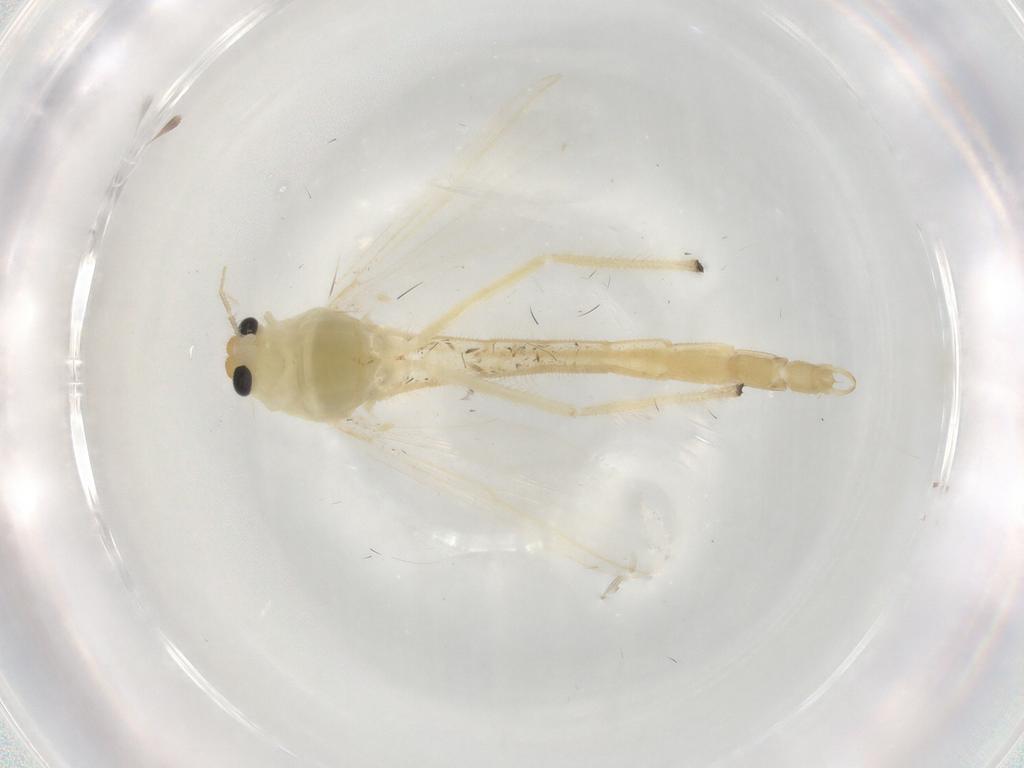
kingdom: Animalia
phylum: Arthropoda
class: Insecta
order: Diptera
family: Chironomidae
